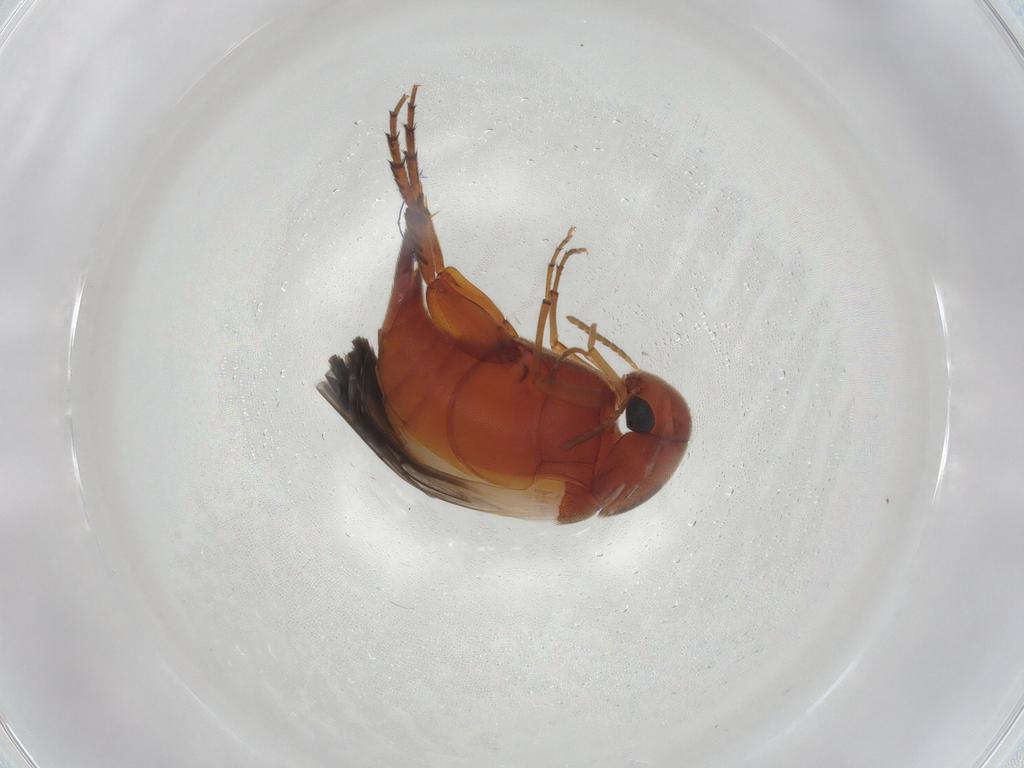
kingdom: Animalia
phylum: Arthropoda
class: Insecta
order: Coleoptera
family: Mordellidae
